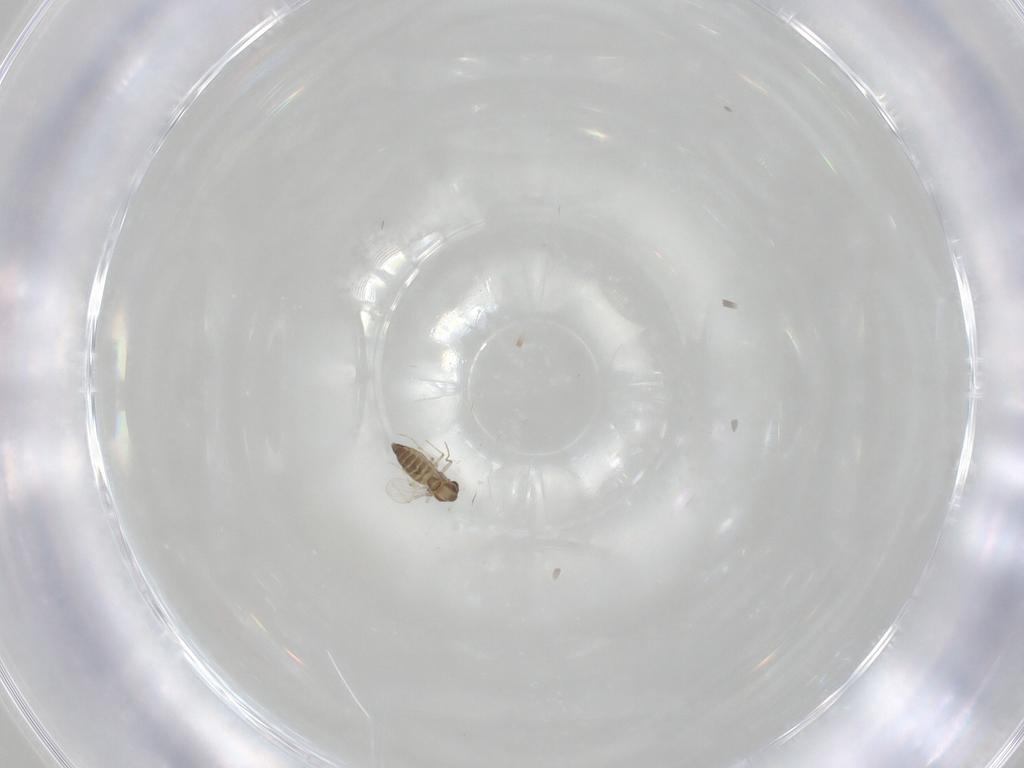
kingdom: Animalia
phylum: Arthropoda
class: Insecta
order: Diptera
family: Chironomidae
